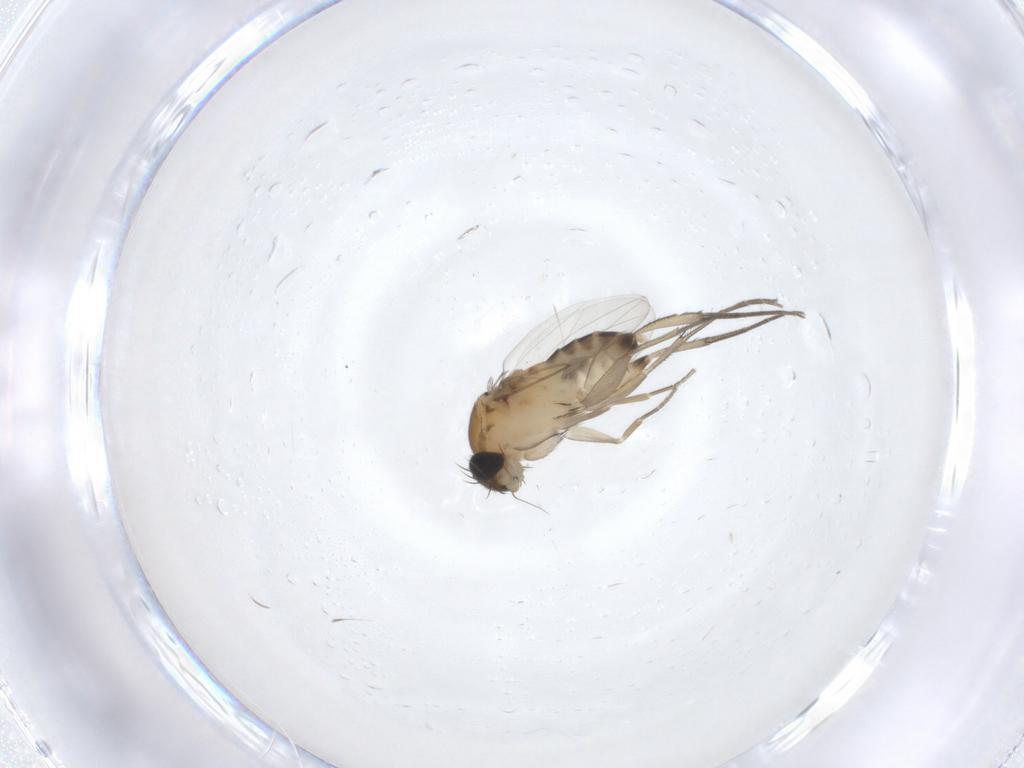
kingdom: Animalia
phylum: Arthropoda
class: Insecta
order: Diptera
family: Phoridae
